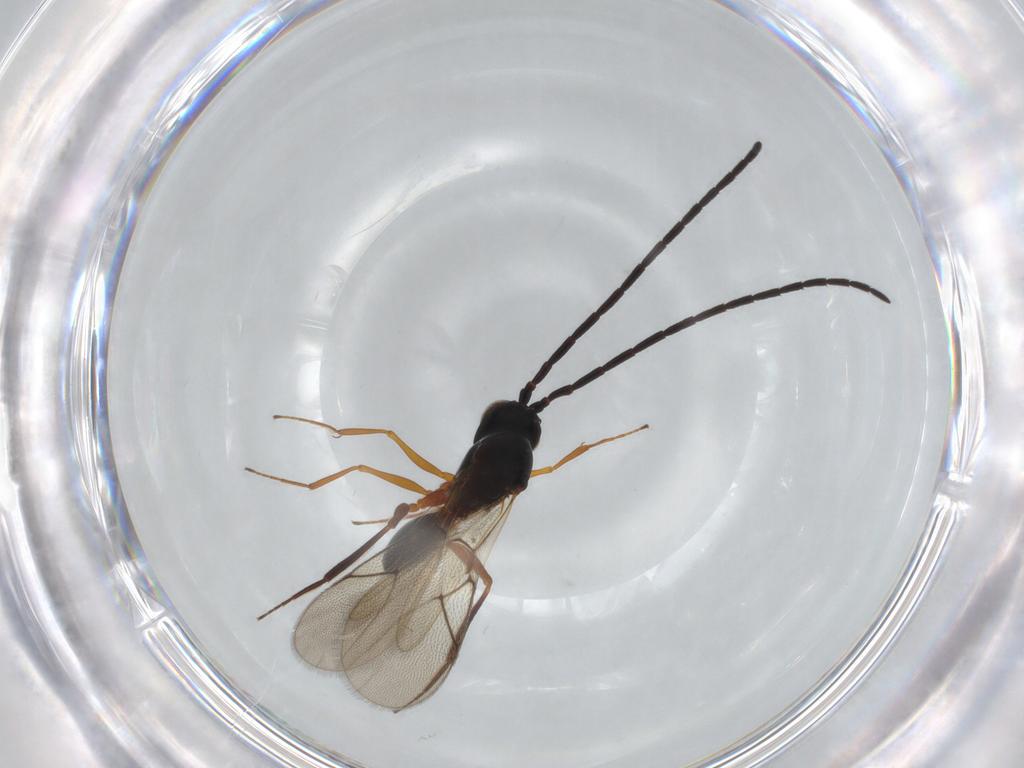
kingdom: Animalia
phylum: Arthropoda
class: Insecta
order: Hymenoptera
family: Figitidae
